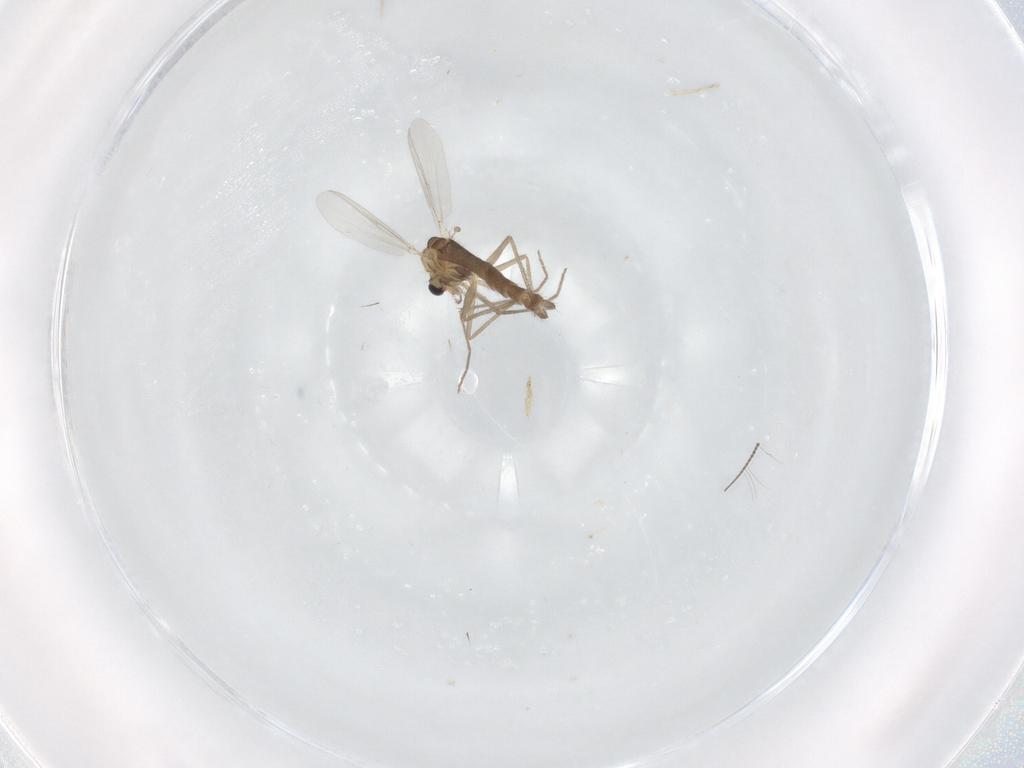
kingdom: Animalia
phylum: Arthropoda
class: Insecta
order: Diptera
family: Chironomidae
